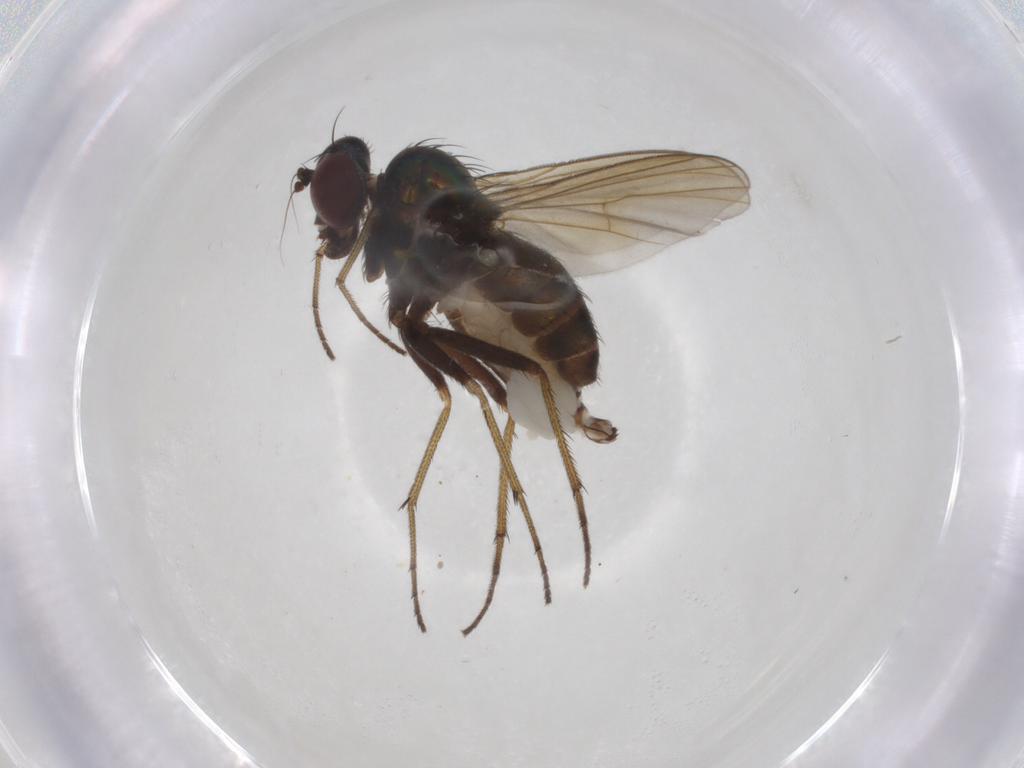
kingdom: Animalia
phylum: Arthropoda
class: Insecta
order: Diptera
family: Dolichopodidae
